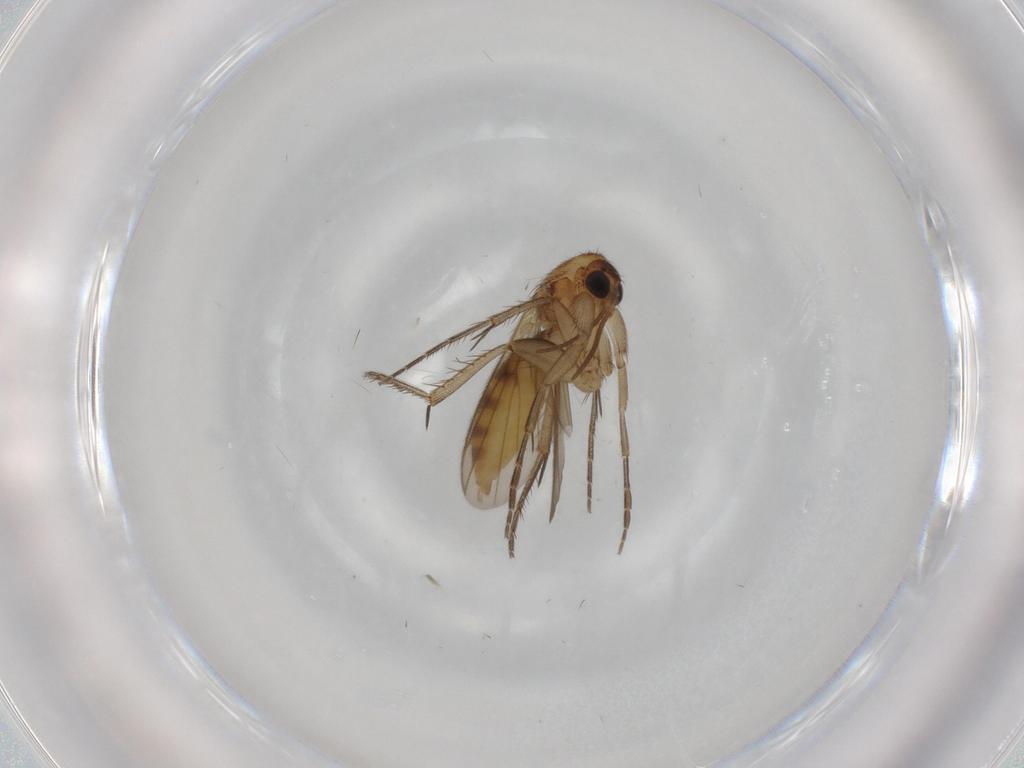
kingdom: Animalia
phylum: Arthropoda
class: Insecta
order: Diptera
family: Mycetophilidae
